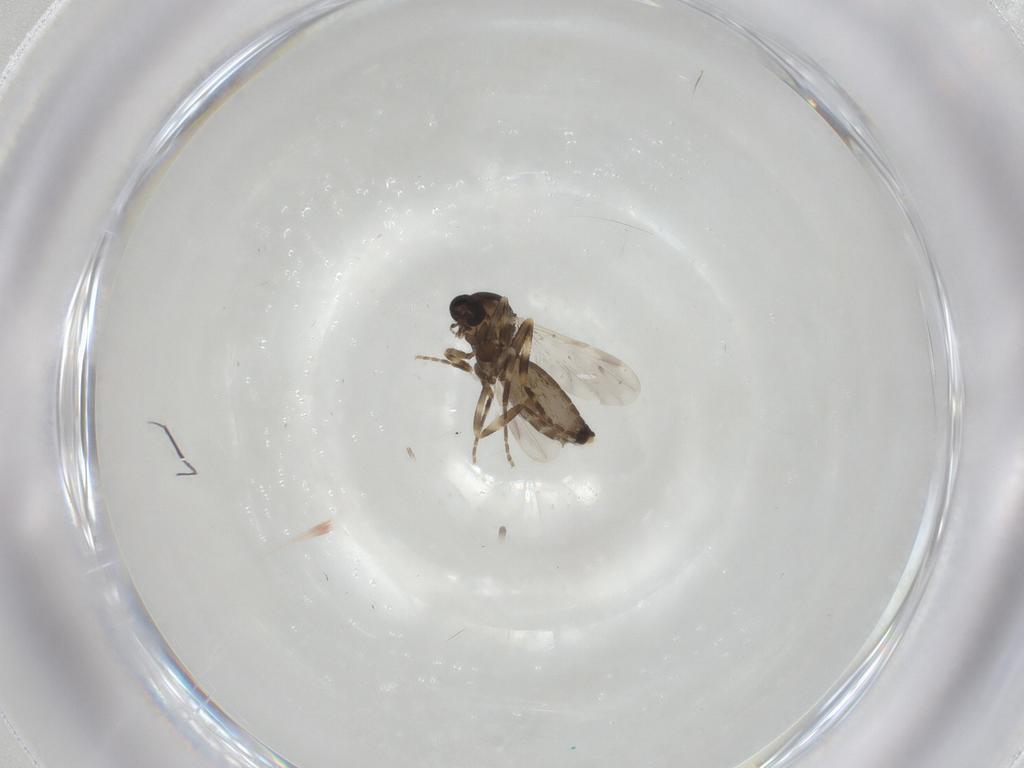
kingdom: Animalia
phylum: Arthropoda
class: Insecta
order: Diptera
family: Ceratopogonidae
